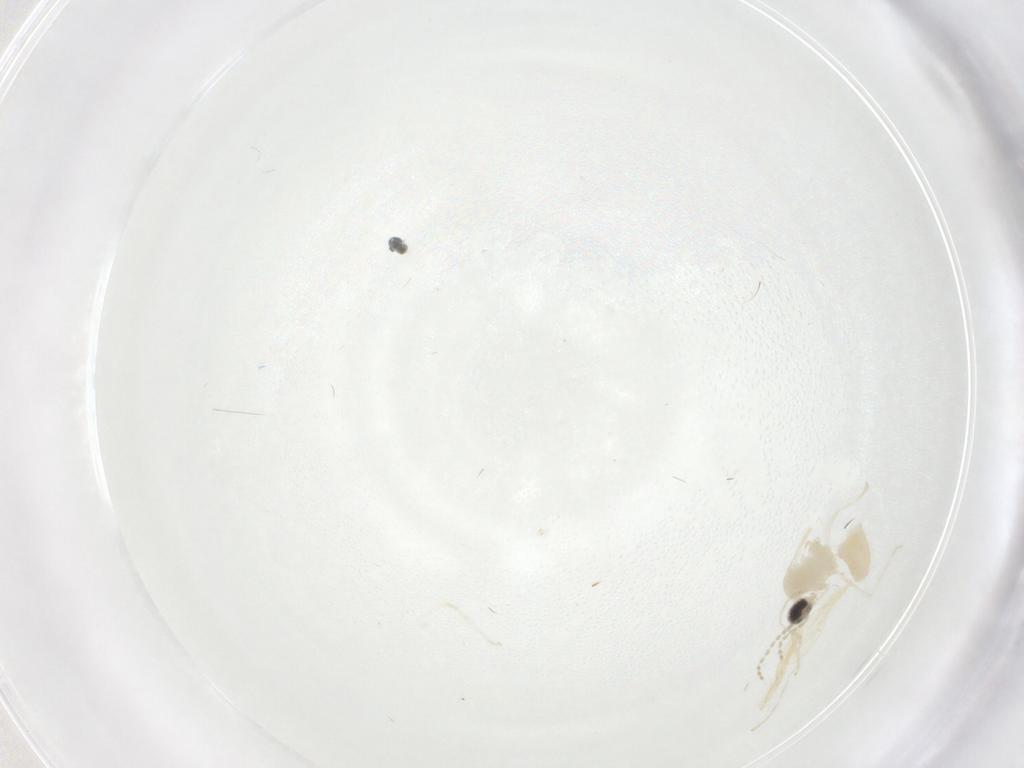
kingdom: Animalia
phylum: Arthropoda
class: Insecta
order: Diptera
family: Cecidomyiidae
